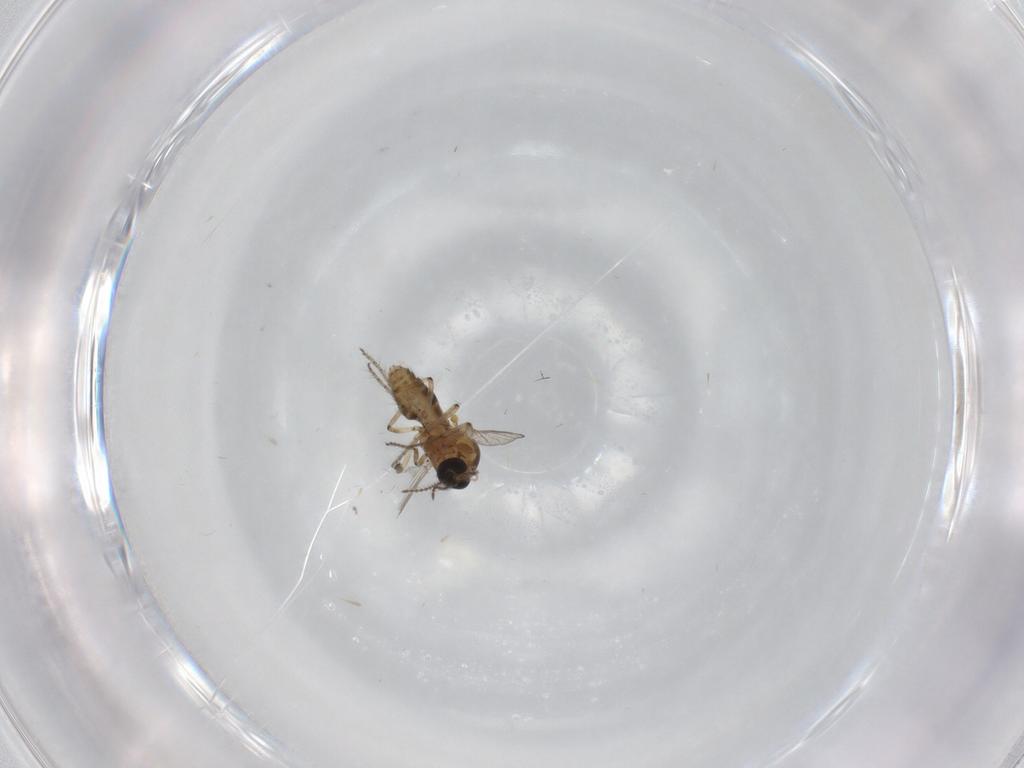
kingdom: Animalia
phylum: Arthropoda
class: Insecta
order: Diptera
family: Ceratopogonidae
